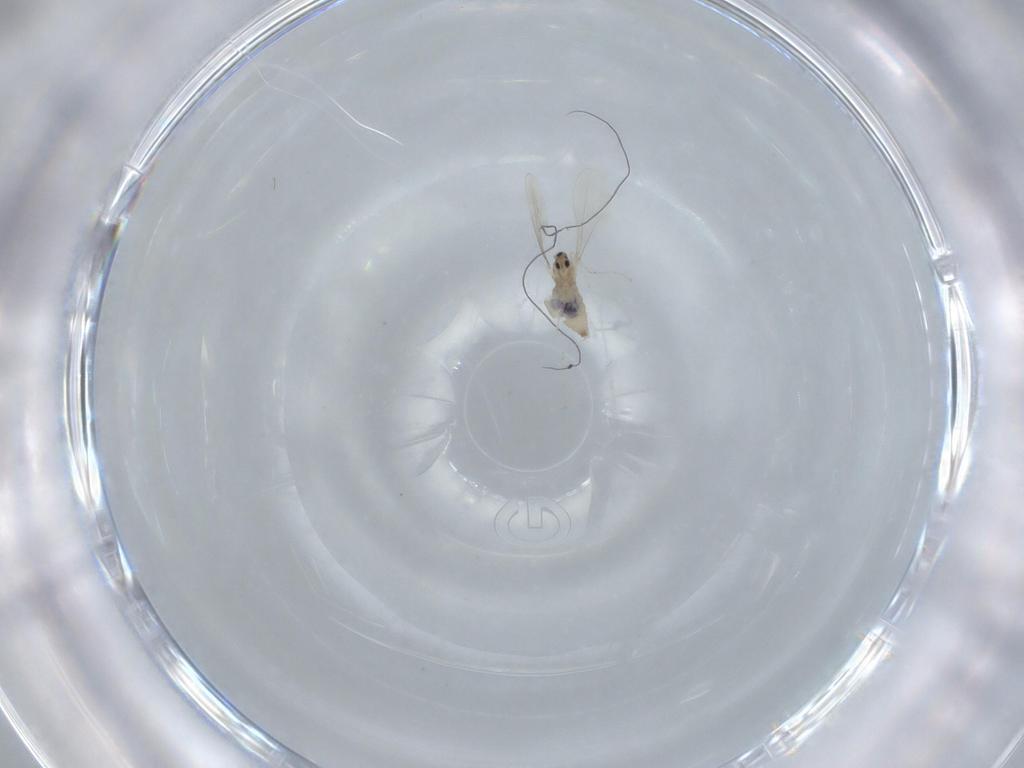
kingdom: Animalia
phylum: Arthropoda
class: Insecta
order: Diptera
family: Cecidomyiidae
